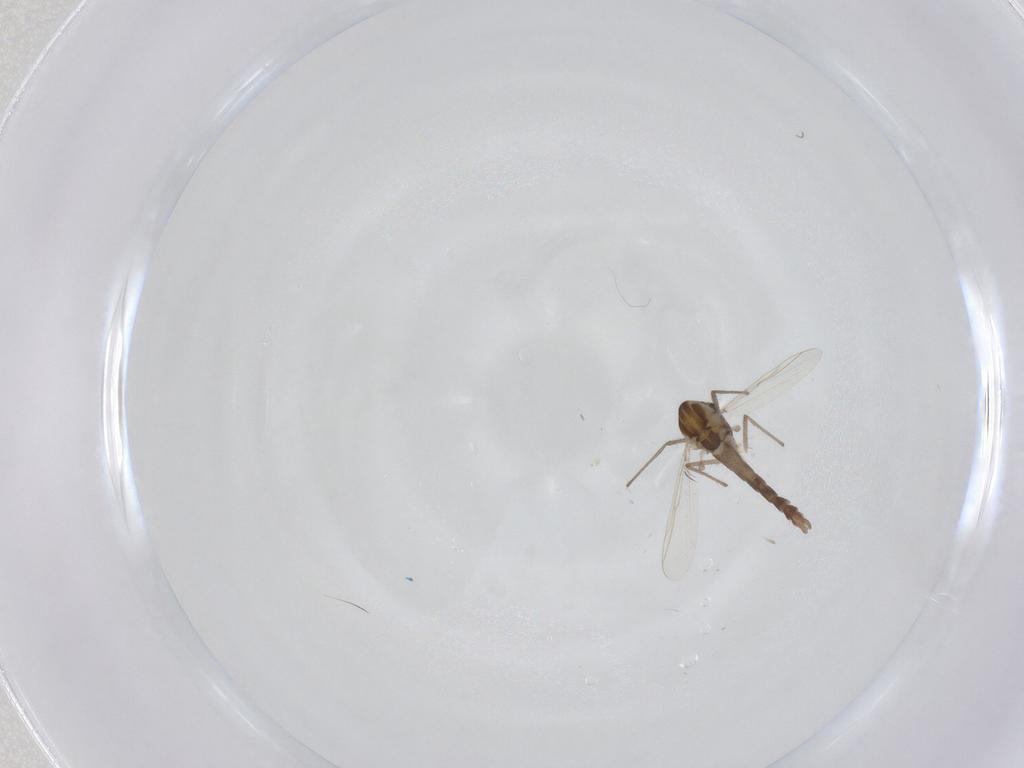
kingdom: Animalia
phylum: Arthropoda
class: Insecta
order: Diptera
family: Chironomidae
